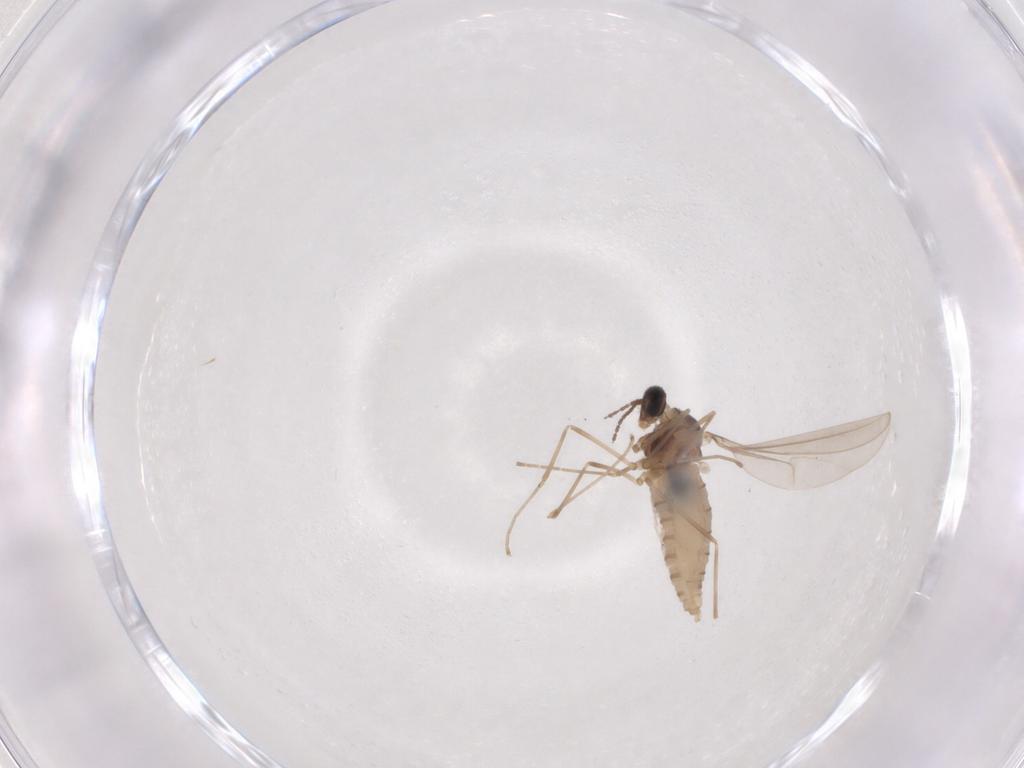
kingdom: Animalia
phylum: Arthropoda
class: Insecta
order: Diptera
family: Cecidomyiidae
